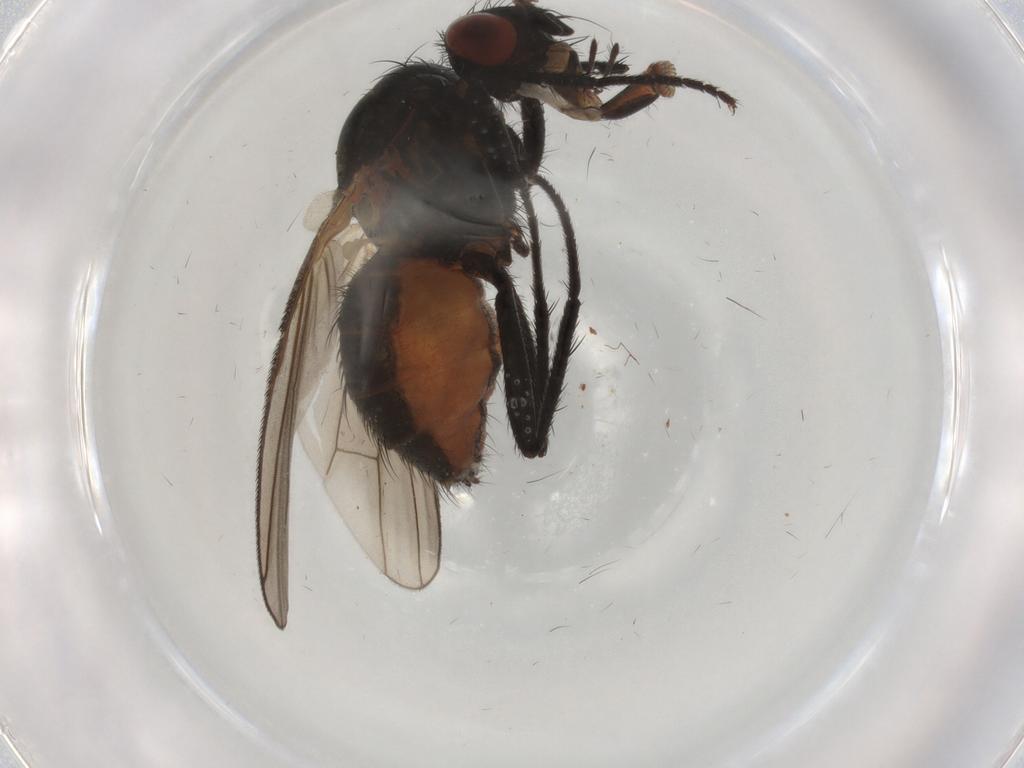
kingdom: Animalia
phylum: Arthropoda
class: Insecta
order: Diptera
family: Anthomyiidae
